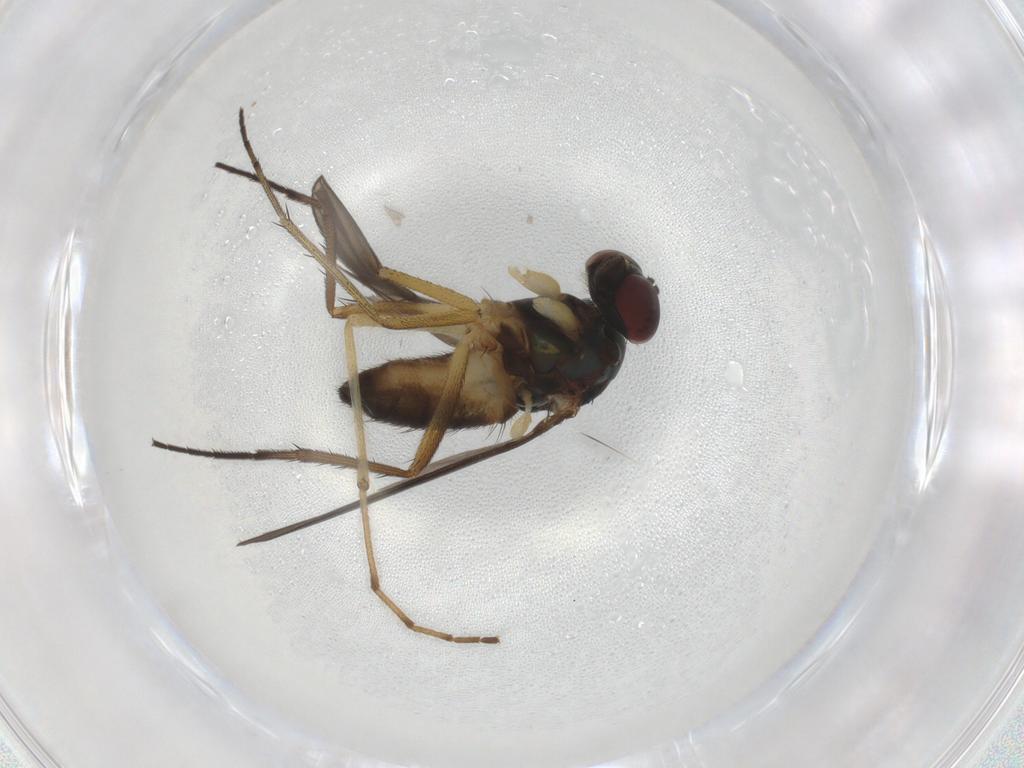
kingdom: Animalia
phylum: Arthropoda
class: Insecta
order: Diptera
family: Dolichopodidae
